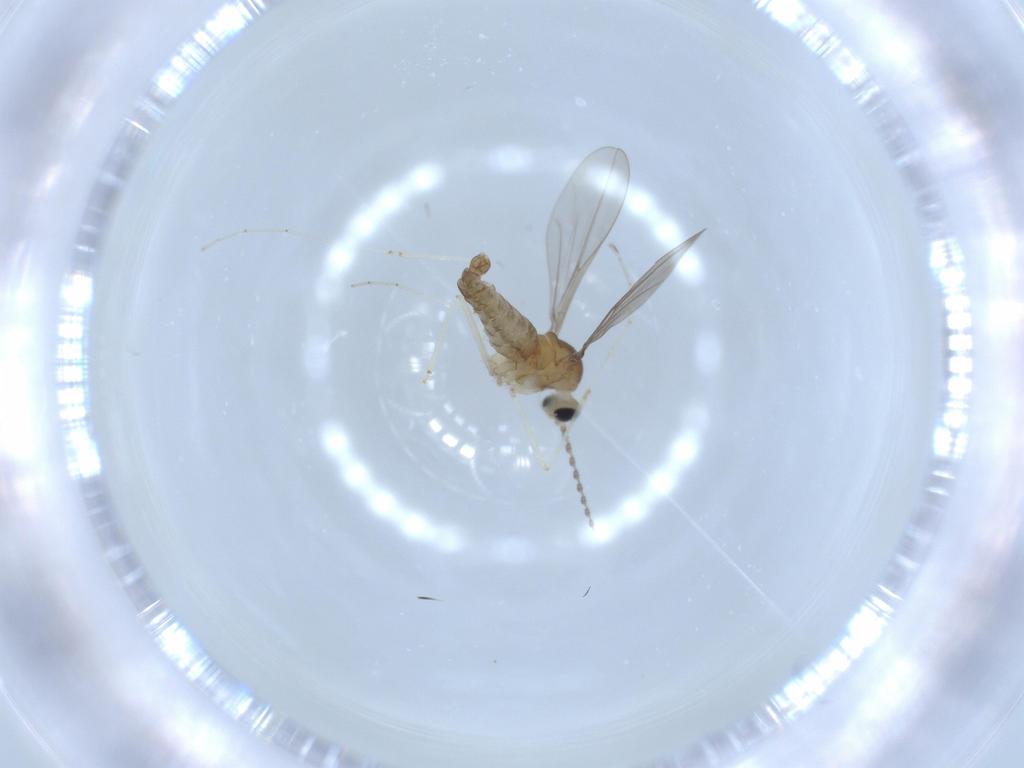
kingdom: Animalia
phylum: Arthropoda
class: Insecta
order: Diptera
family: Cecidomyiidae
